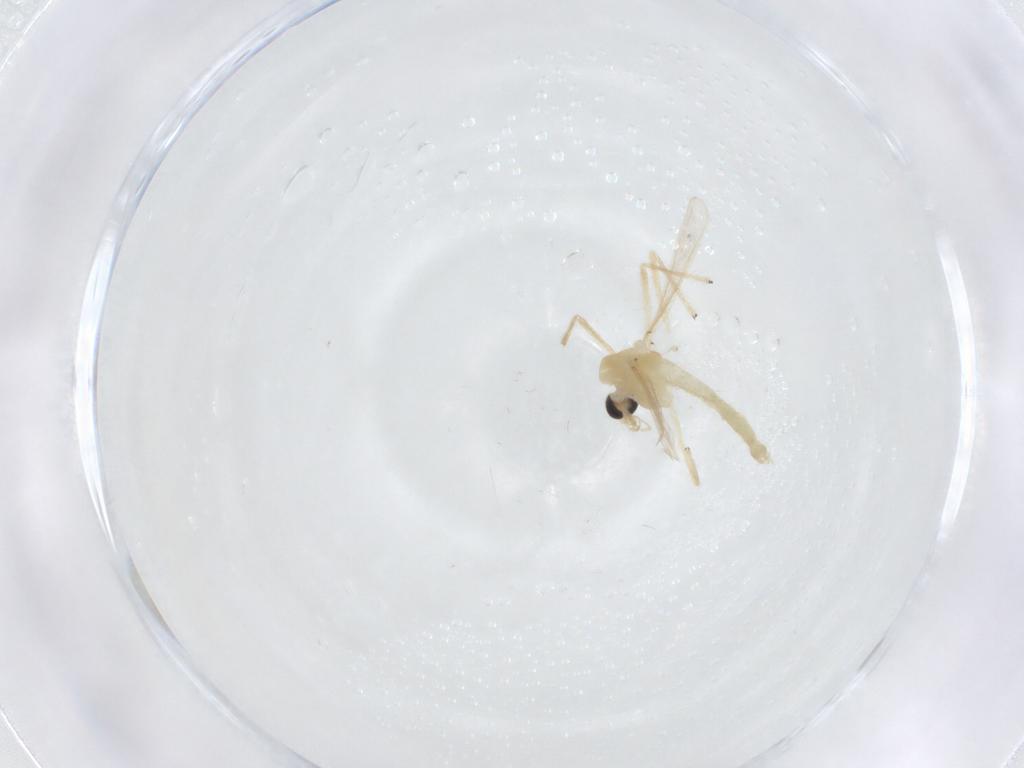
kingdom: Animalia
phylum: Arthropoda
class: Insecta
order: Diptera
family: Chironomidae
